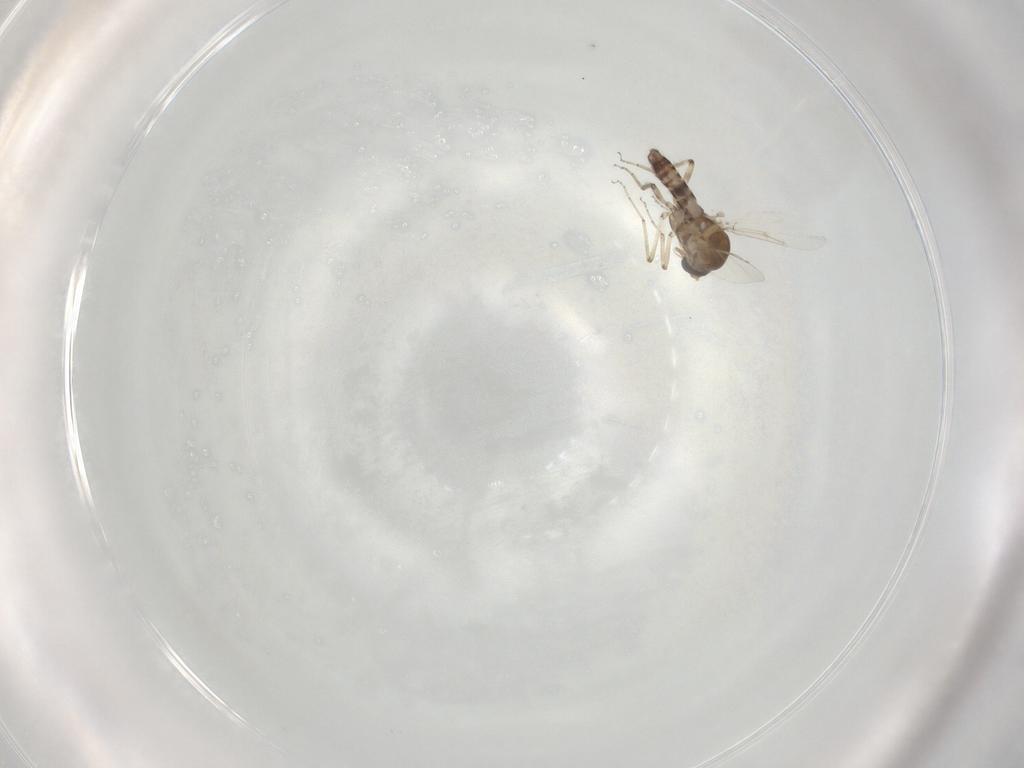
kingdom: Animalia
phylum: Arthropoda
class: Insecta
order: Diptera
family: Ceratopogonidae
